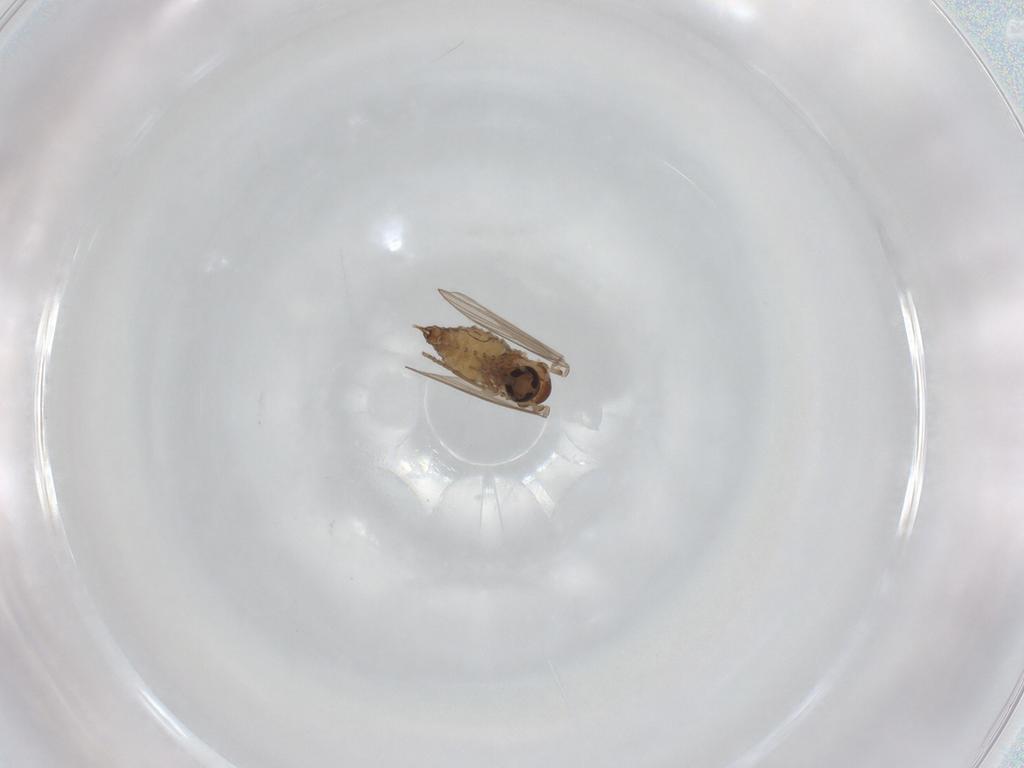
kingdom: Animalia
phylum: Arthropoda
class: Insecta
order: Diptera
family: Psychodidae
